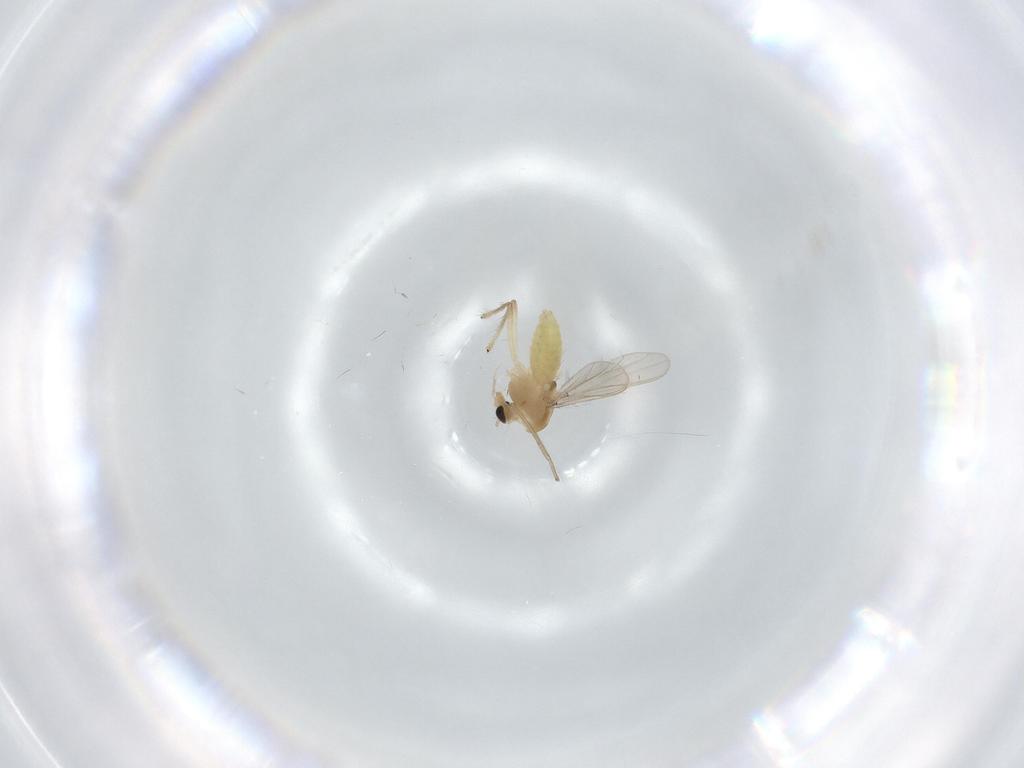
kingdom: Animalia
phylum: Arthropoda
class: Insecta
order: Diptera
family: Chironomidae
